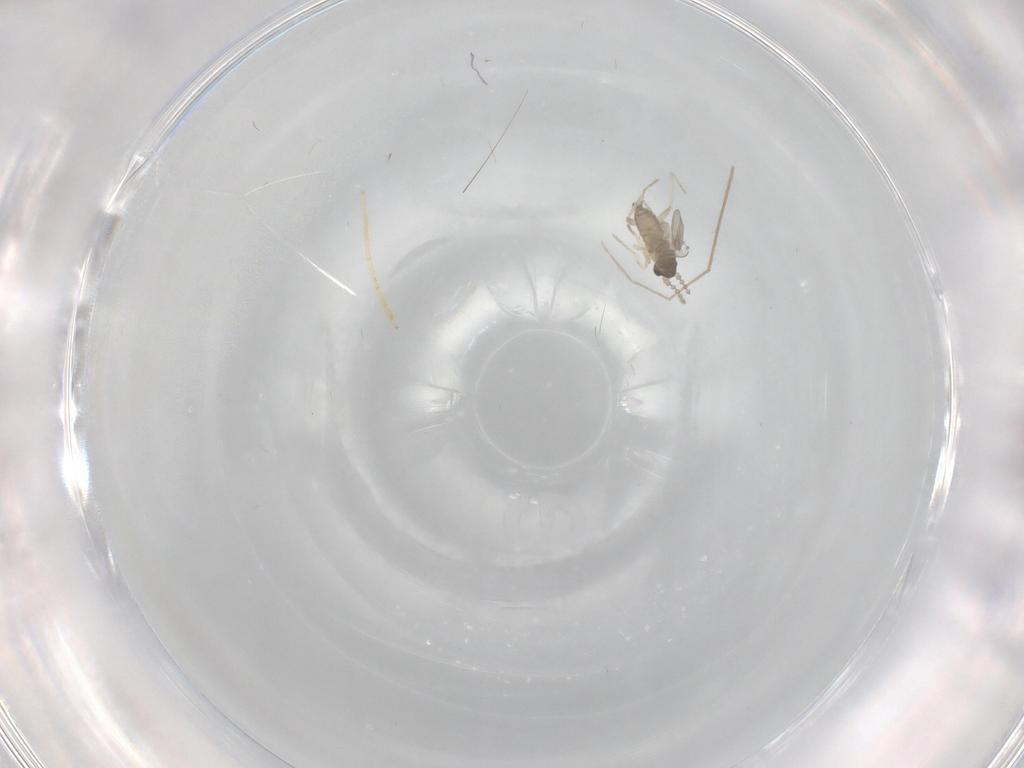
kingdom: Animalia
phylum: Arthropoda
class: Insecta
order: Diptera
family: Cecidomyiidae
